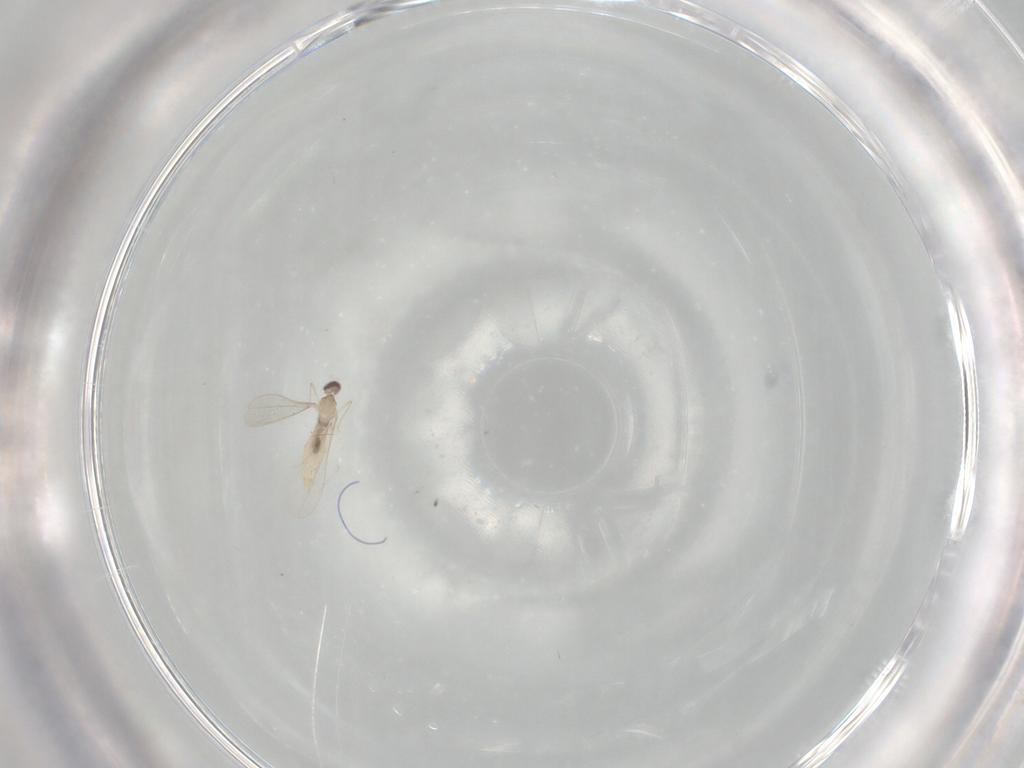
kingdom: Animalia
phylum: Arthropoda
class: Insecta
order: Diptera
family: Cecidomyiidae
